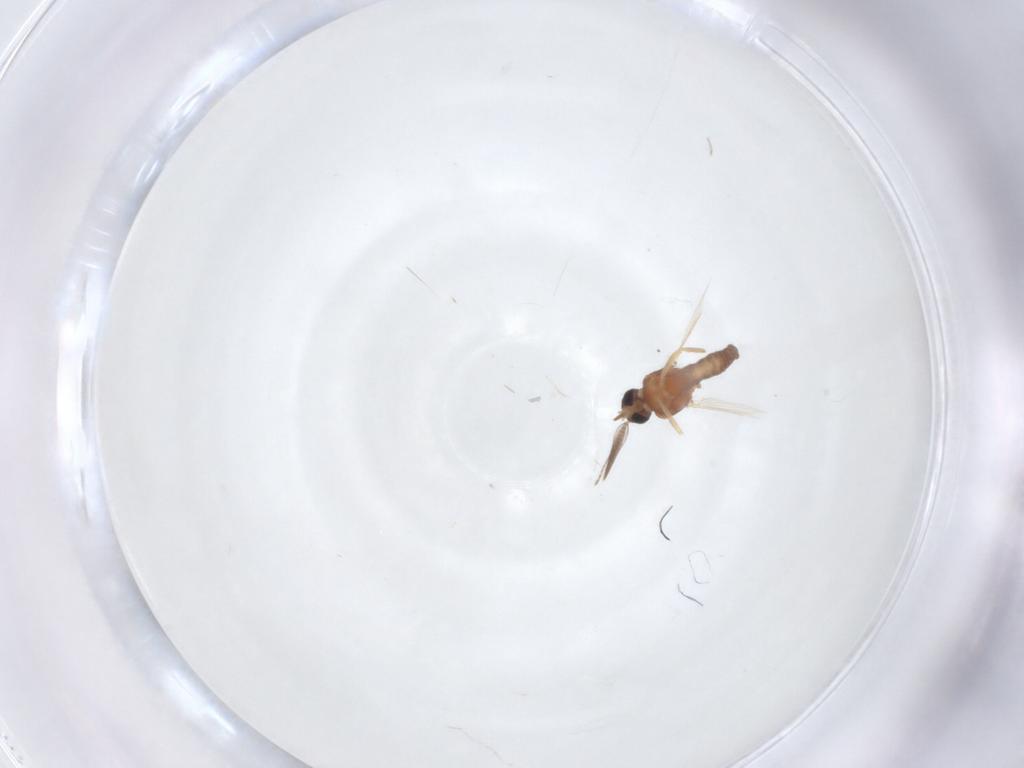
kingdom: Animalia
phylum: Arthropoda
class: Insecta
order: Diptera
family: Ceratopogonidae
